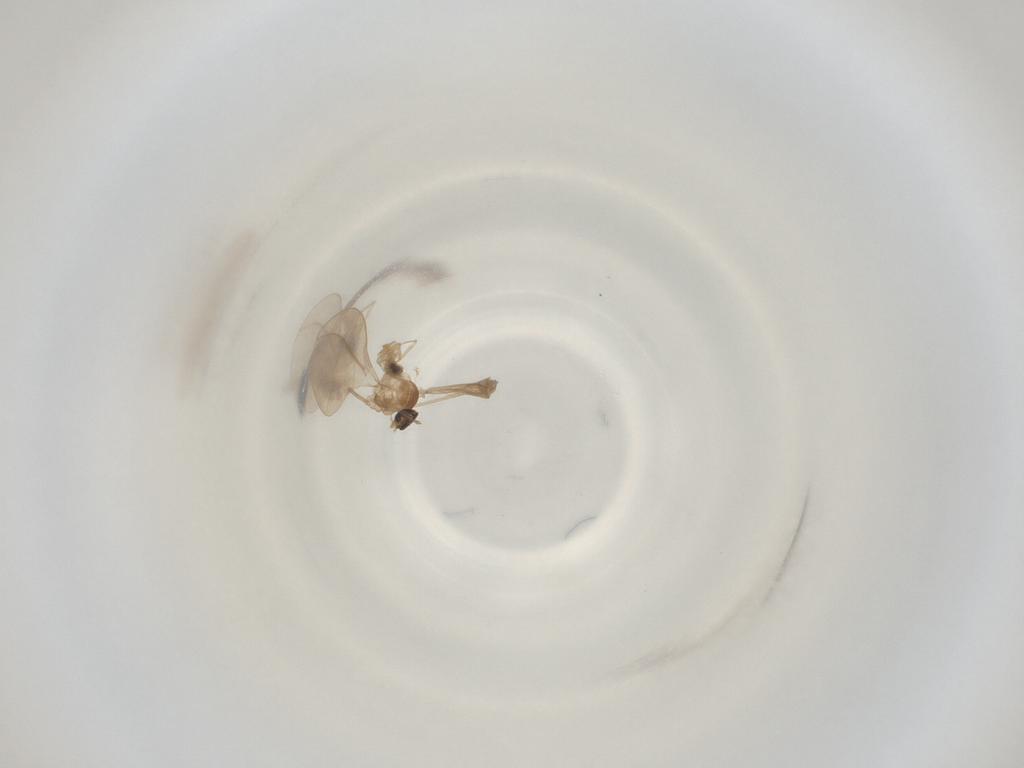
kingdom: Animalia
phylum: Arthropoda
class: Insecta
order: Diptera
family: Cecidomyiidae
